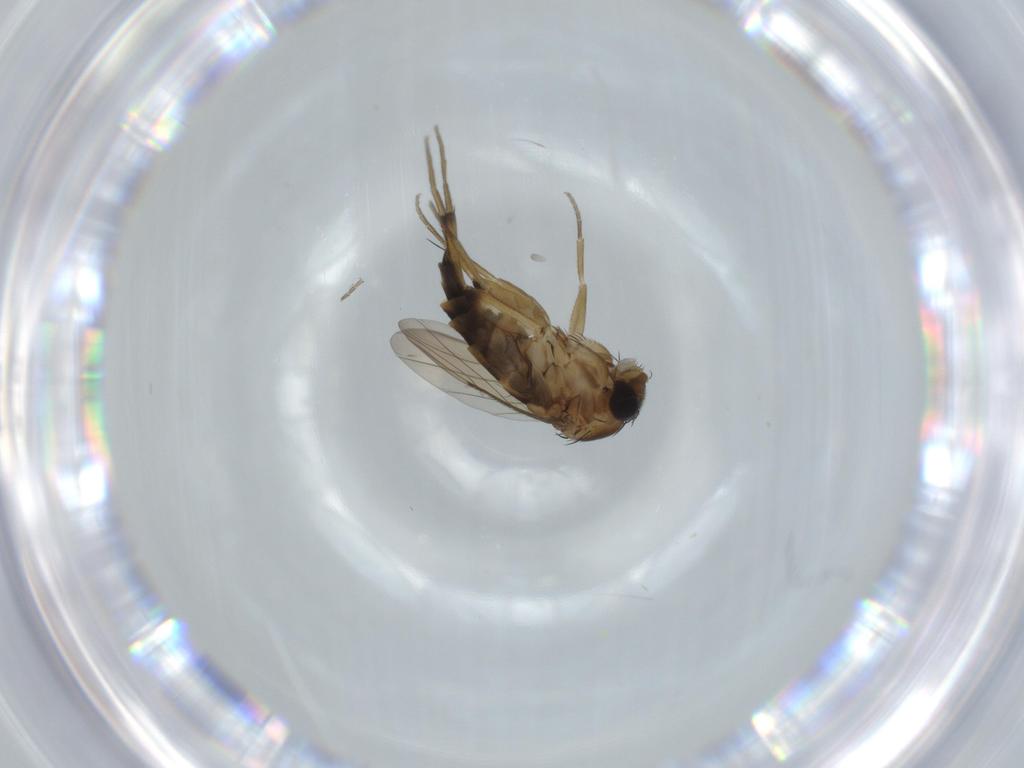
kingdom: Animalia
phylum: Arthropoda
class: Insecta
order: Diptera
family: Phoridae
